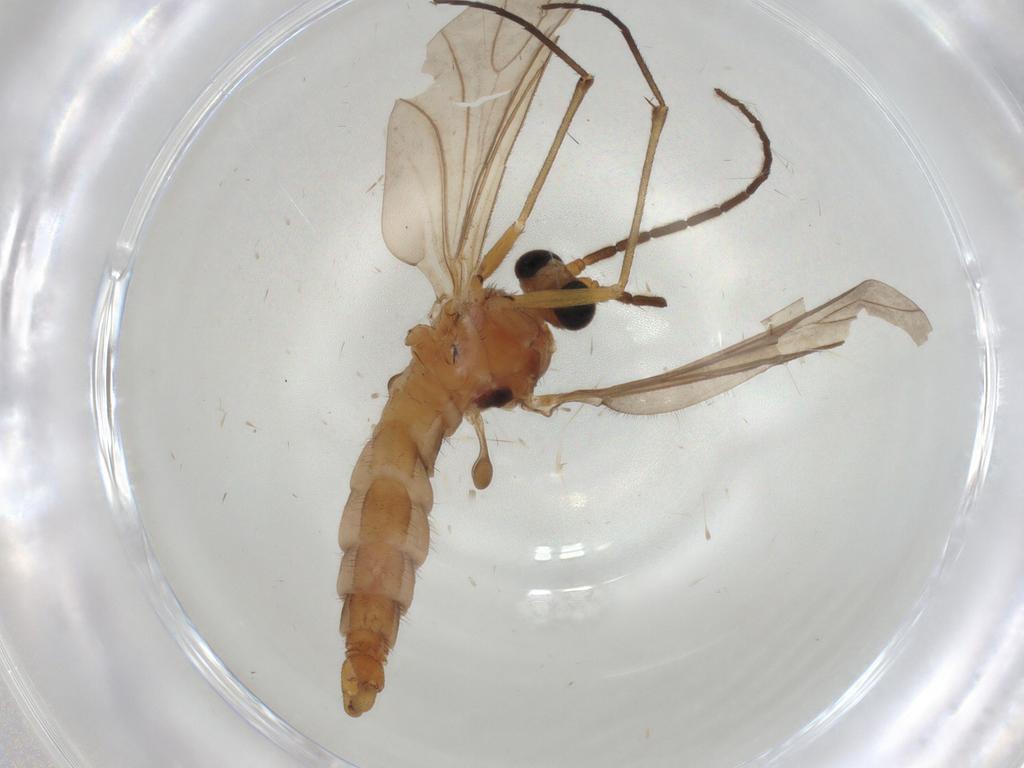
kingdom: Animalia
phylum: Arthropoda
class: Insecta
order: Diptera
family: Sciaridae
